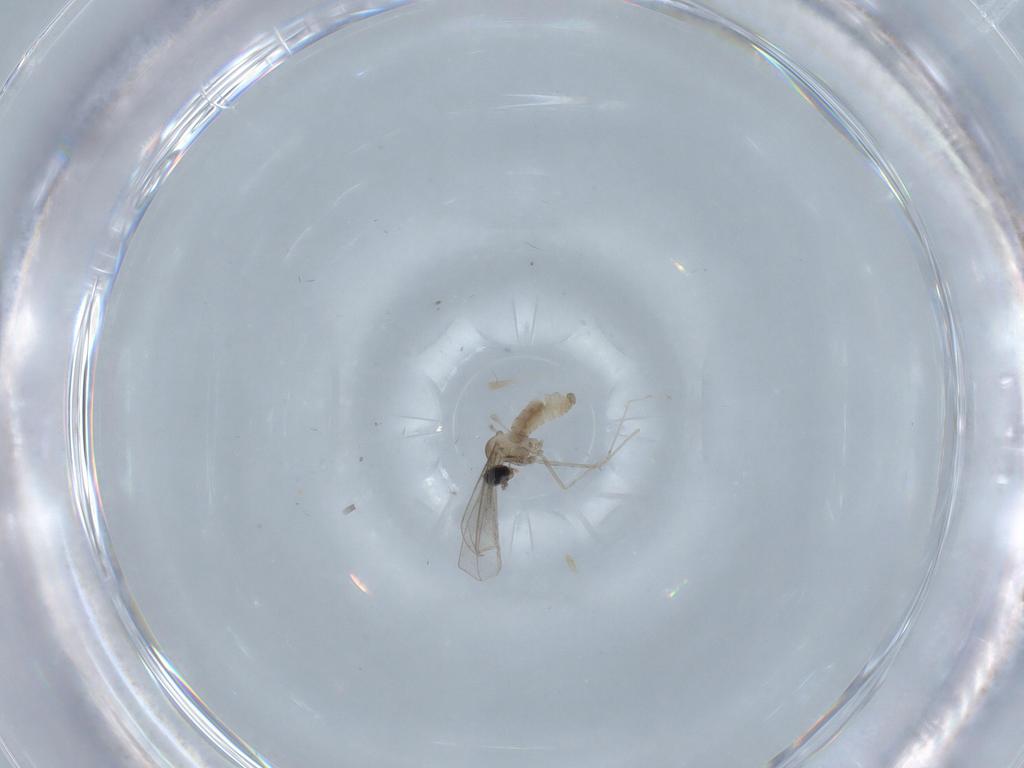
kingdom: Animalia
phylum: Arthropoda
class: Insecta
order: Diptera
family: Cecidomyiidae
